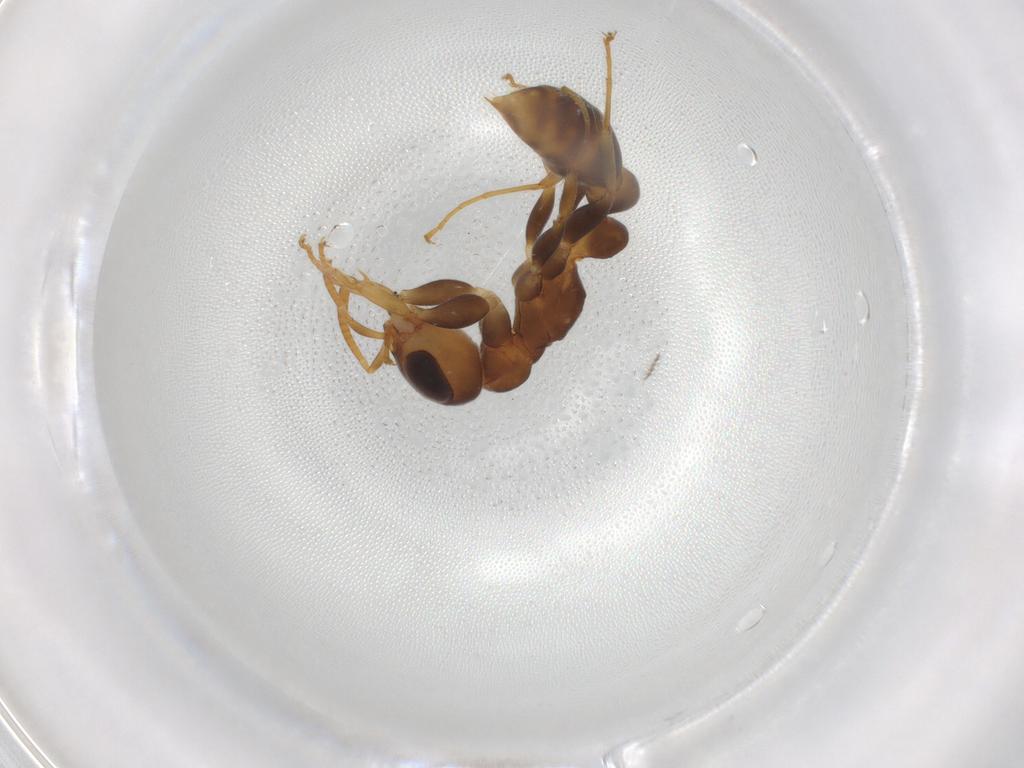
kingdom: Animalia
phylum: Arthropoda
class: Insecta
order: Hymenoptera
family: Formicidae
